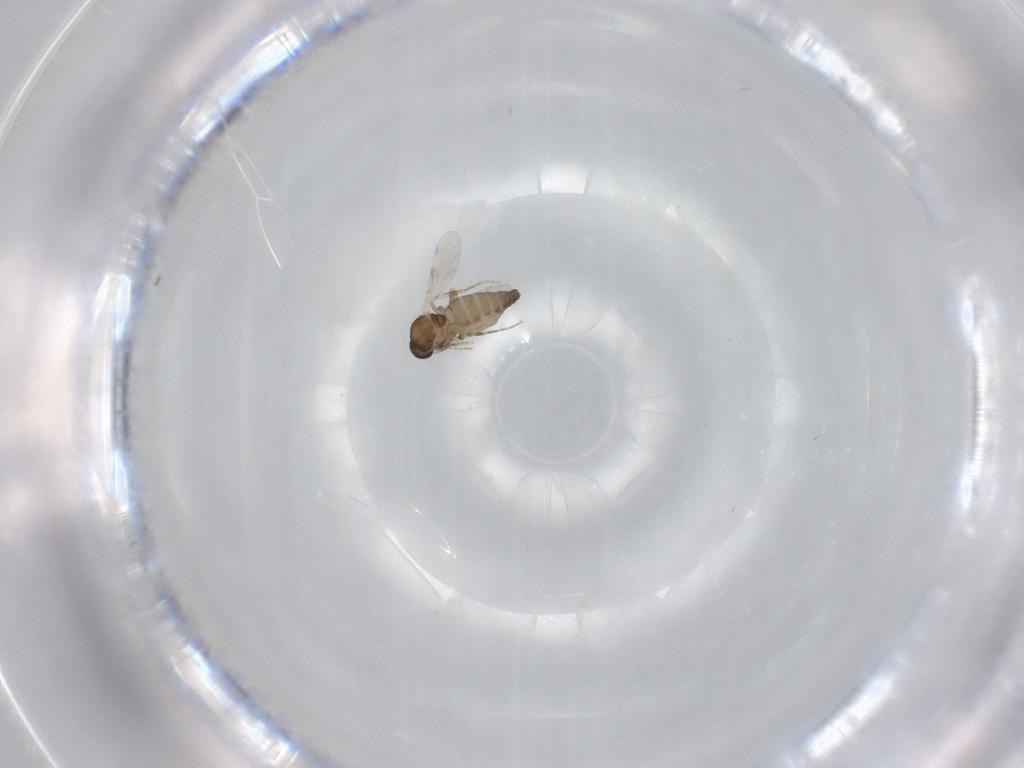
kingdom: Animalia
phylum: Arthropoda
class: Insecta
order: Diptera
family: Ceratopogonidae
